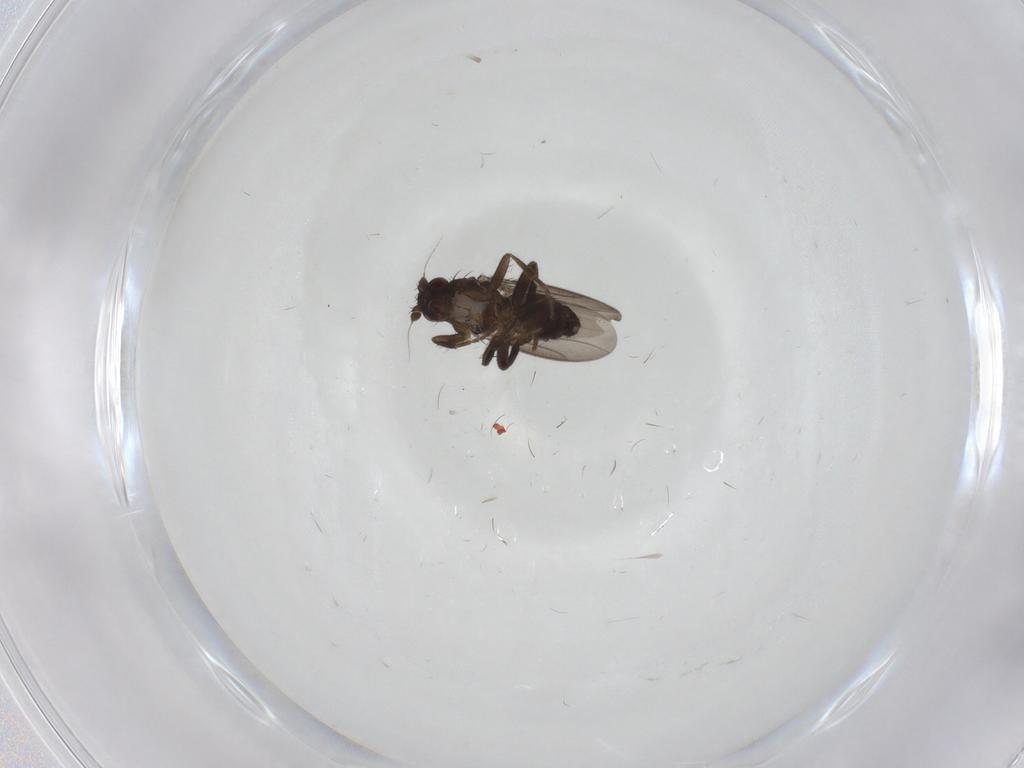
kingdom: Animalia
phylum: Arthropoda
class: Insecta
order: Diptera
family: Sphaeroceridae
